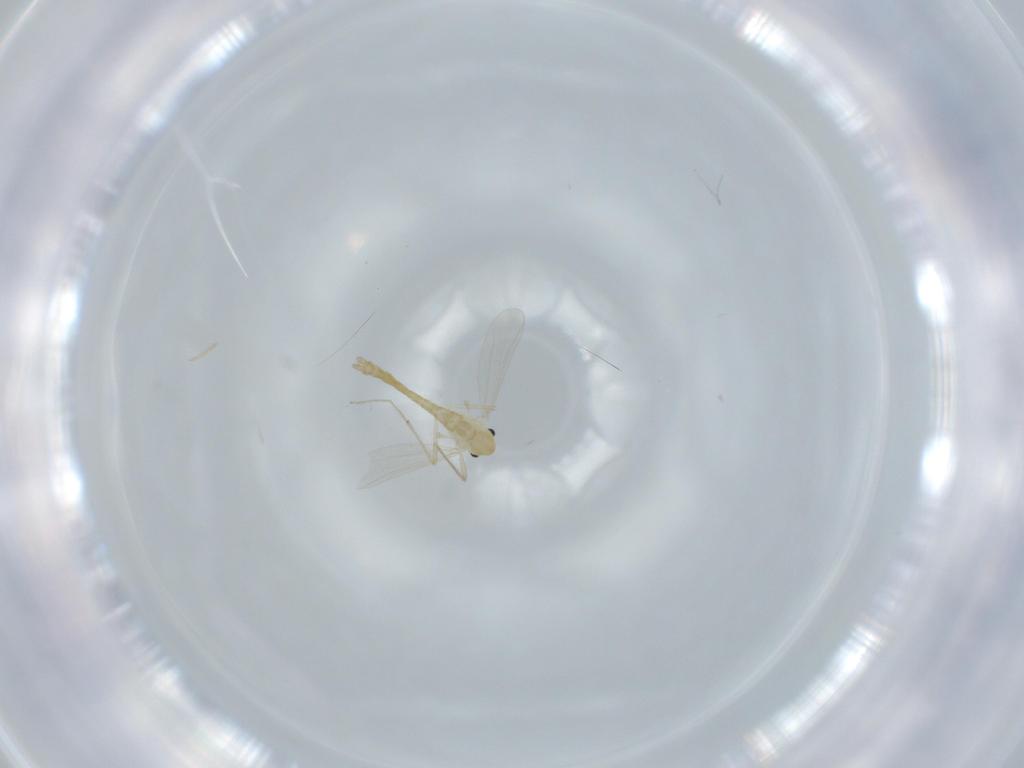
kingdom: Animalia
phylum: Arthropoda
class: Insecta
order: Diptera
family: Chironomidae
